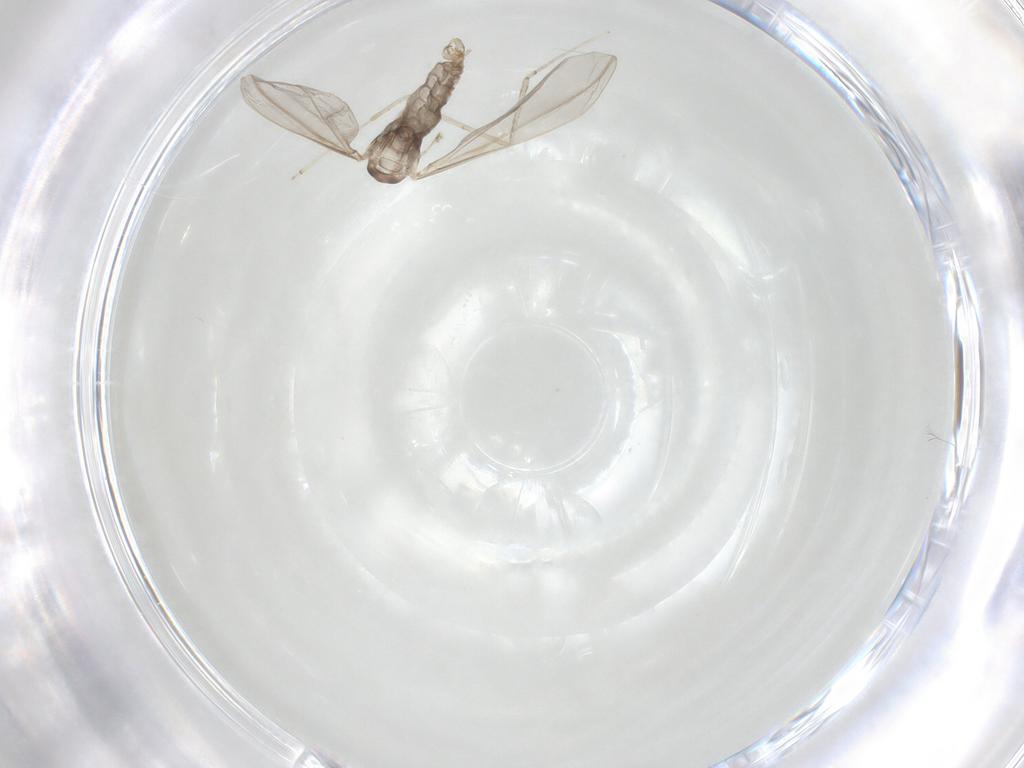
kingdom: Animalia
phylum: Arthropoda
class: Insecta
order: Diptera
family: Cecidomyiidae
